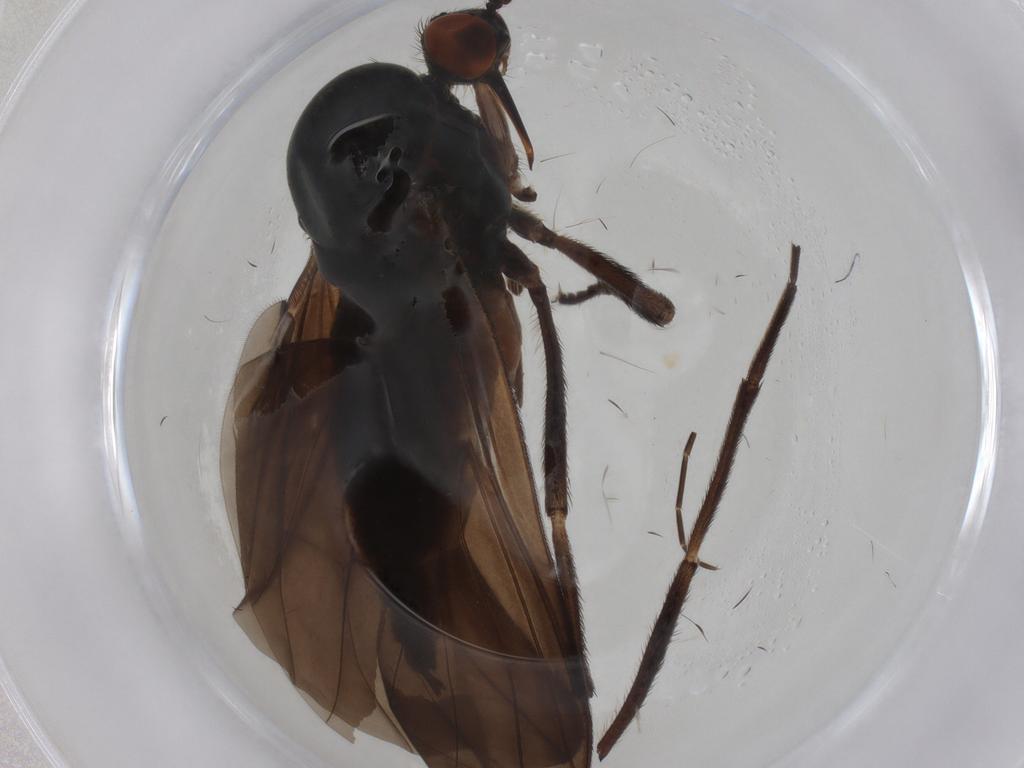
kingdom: Animalia
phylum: Arthropoda
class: Insecta
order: Diptera
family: Empididae
